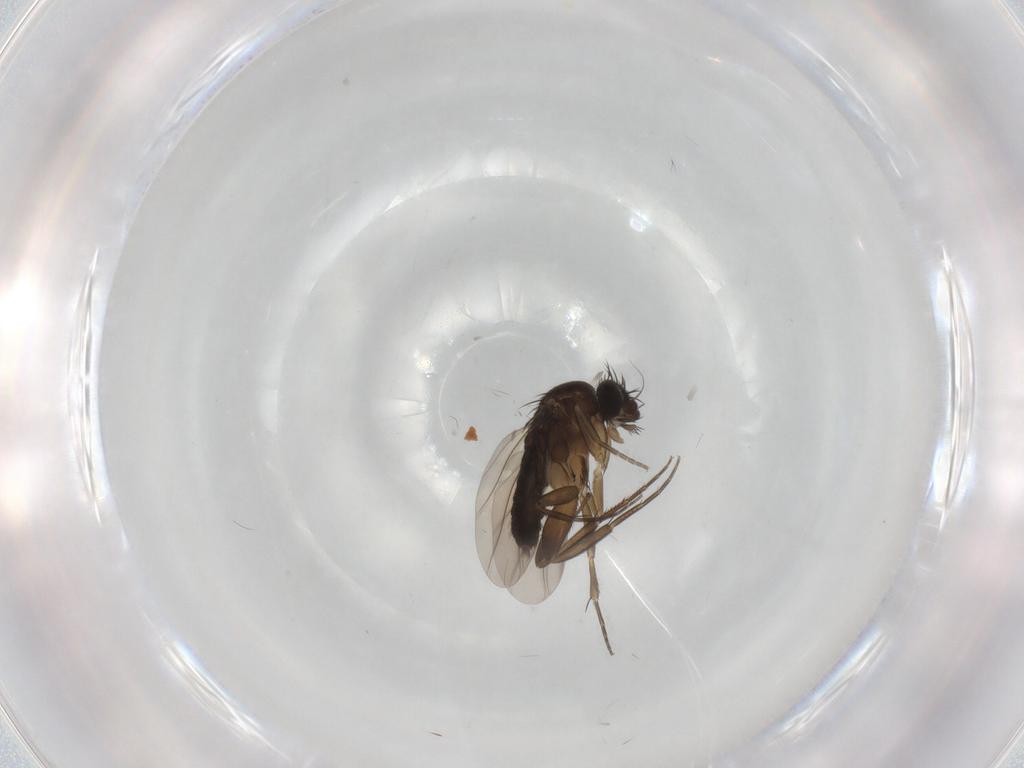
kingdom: Animalia
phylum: Arthropoda
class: Insecta
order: Diptera
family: Phoridae
